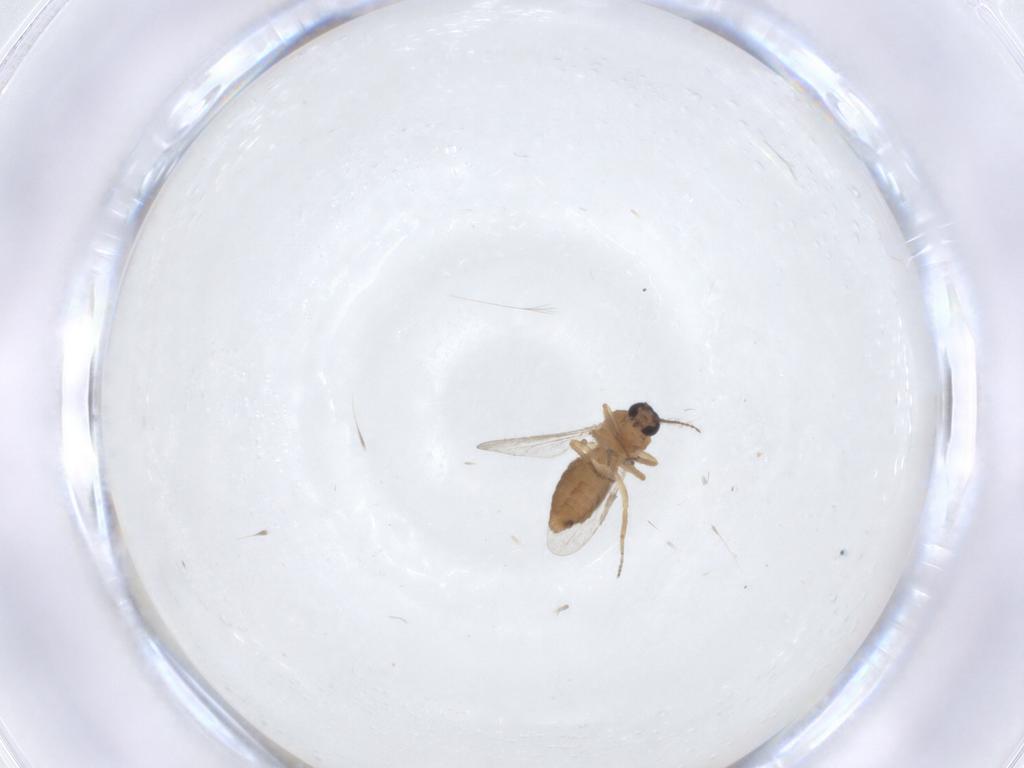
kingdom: Animalia
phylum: Arthropoda
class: Insecta
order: Diptera
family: Ceratopogonidae
